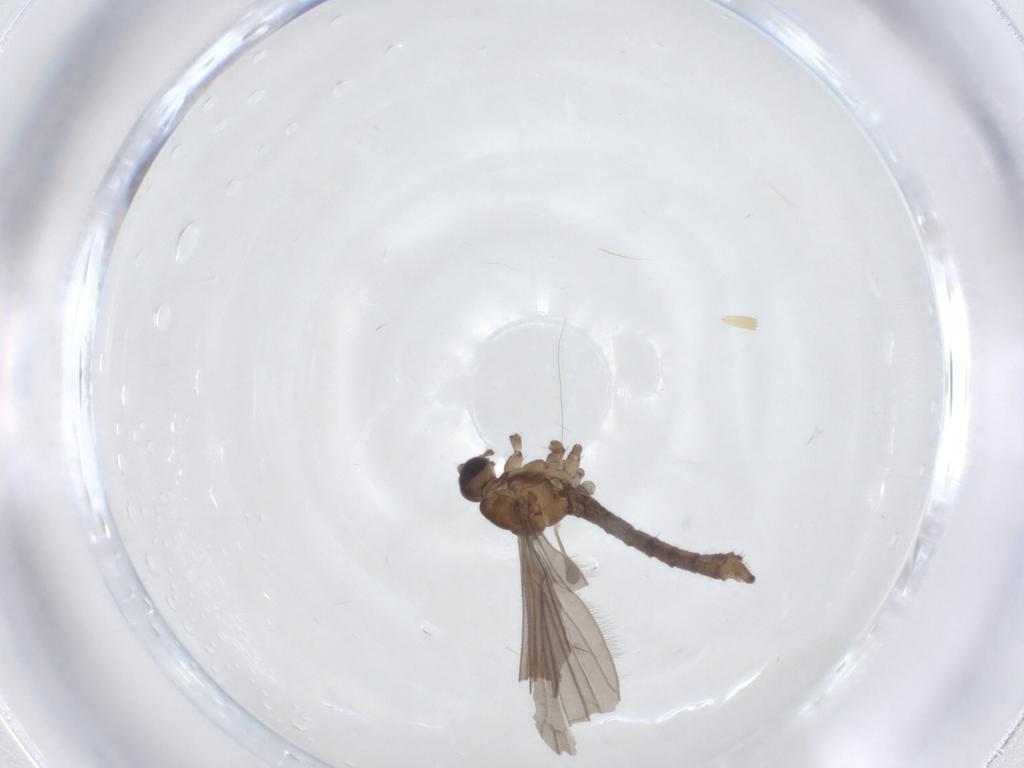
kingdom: Animalia
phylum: Arthropoda
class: Insecta
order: Diptera
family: Limoniidae
